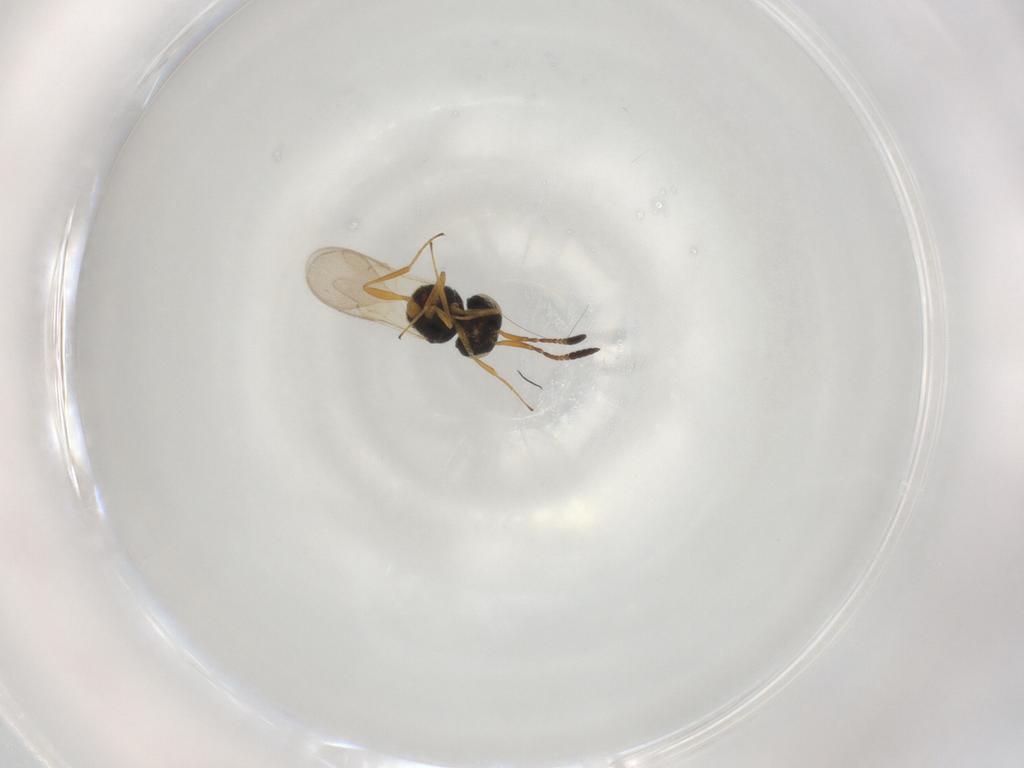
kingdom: Animalia
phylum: Arthropoda
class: Insecta
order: Hymenoptera
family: Scelionidae
